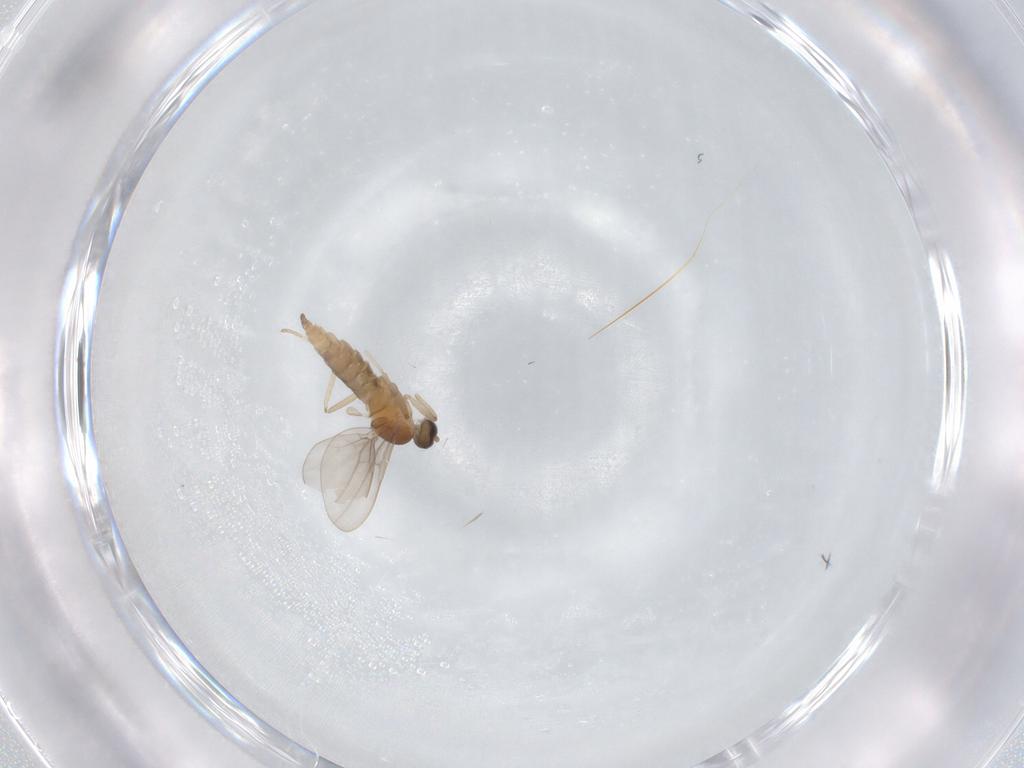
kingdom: Animalia
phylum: Arthropoda
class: Insecta
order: Diptera
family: Cecidomyiidae
